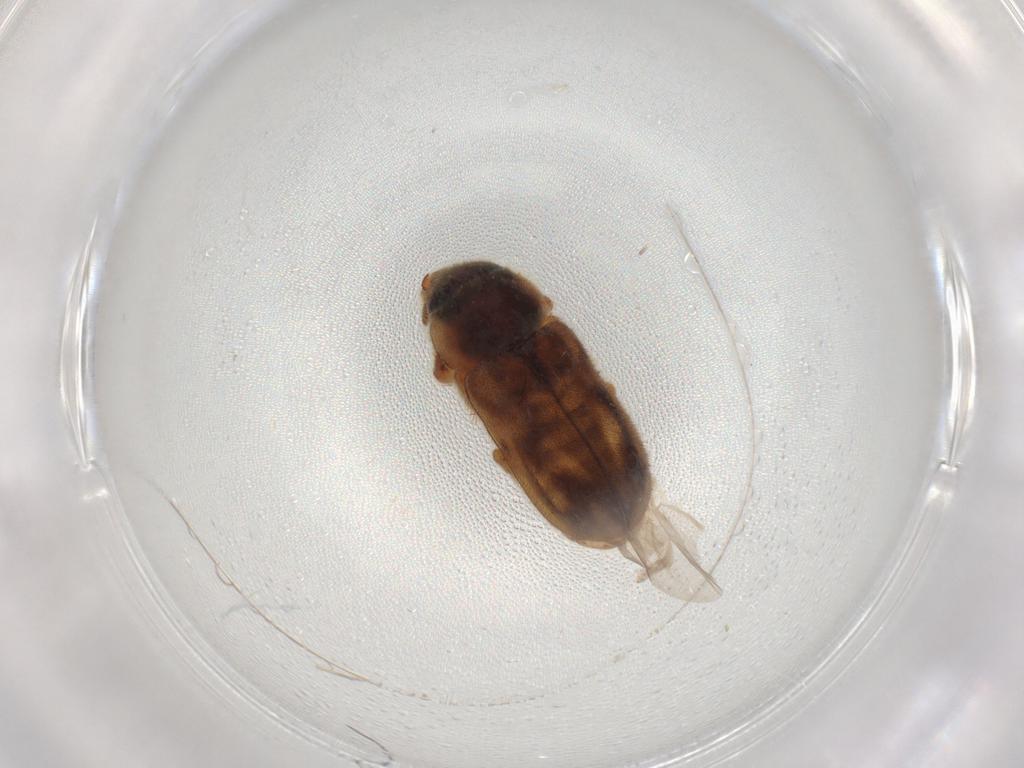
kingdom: Animalia
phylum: Arthropoda
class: Insecta
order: Coleoptera
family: Heteroceridae
